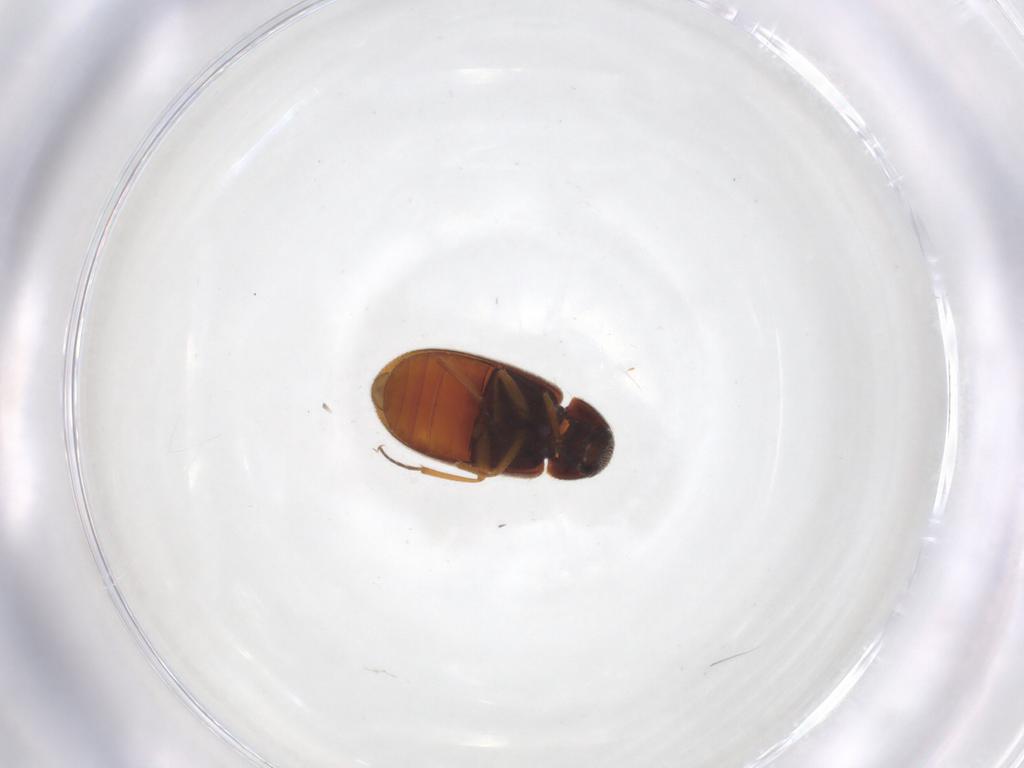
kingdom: Animalia
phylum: Arthropoda
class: Insecta
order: Coleoptera
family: Rhadalidae
